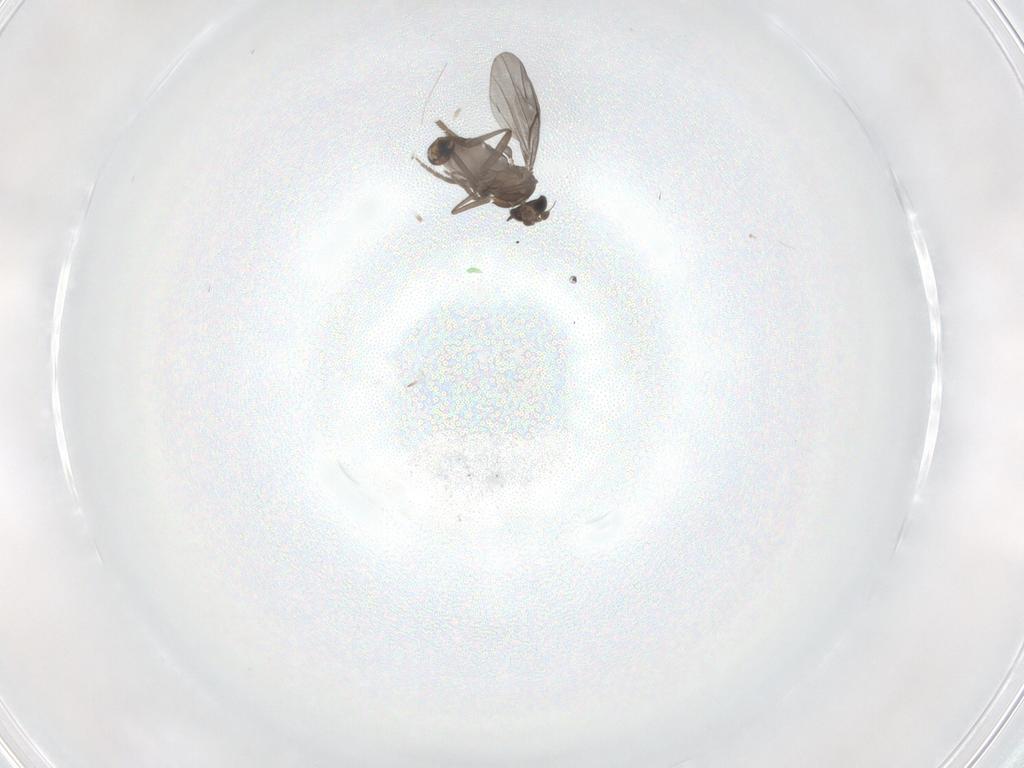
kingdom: Animalia
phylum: Arthropoda
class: Insecta
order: Diptera
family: Phoridae
